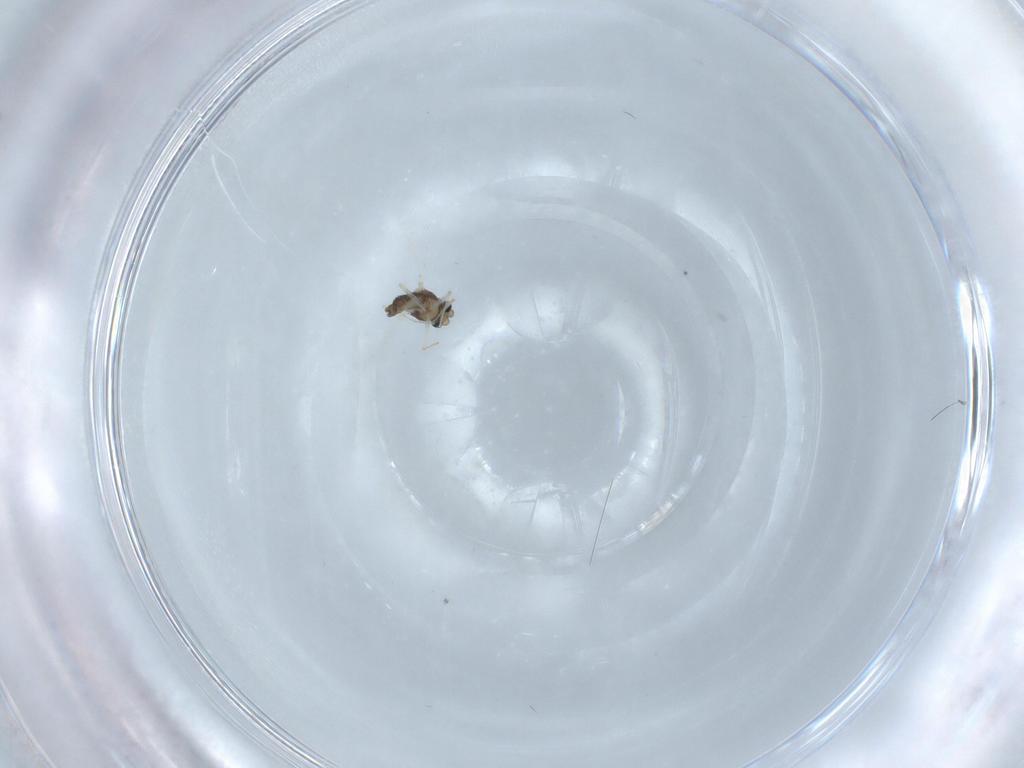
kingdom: Animalia
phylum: Arthropoda
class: Insecta
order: Diptera
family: Chironomidae
